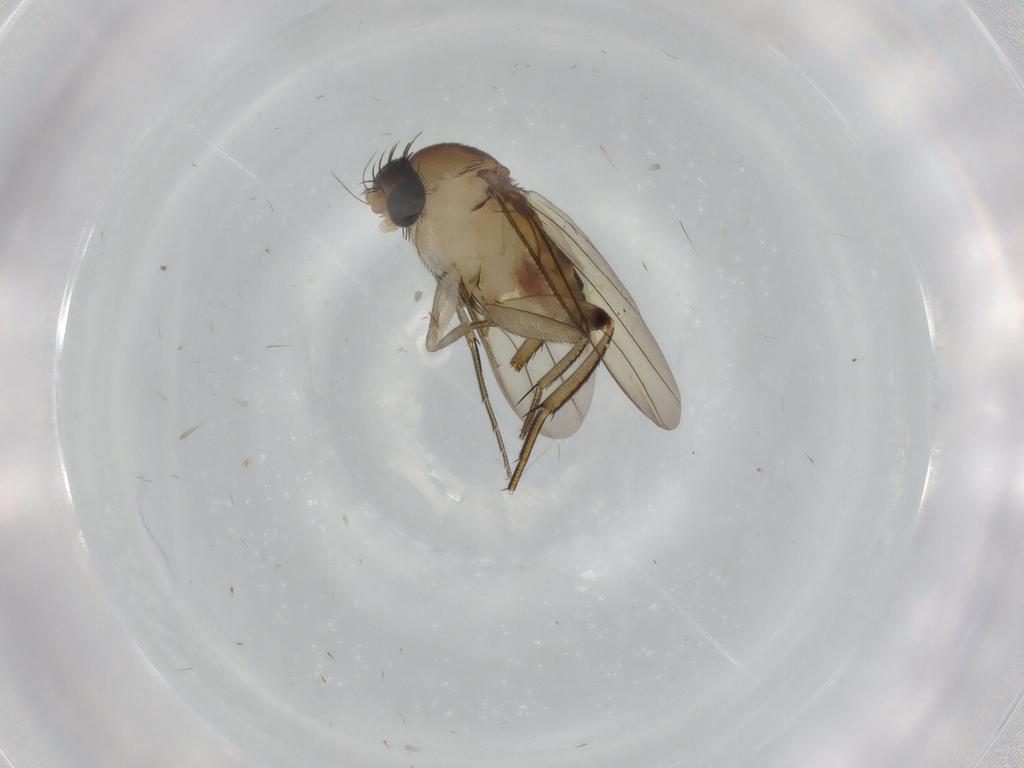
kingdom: Animalia
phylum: Arthropoda
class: Insecta
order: Diptera
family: Phoridae
